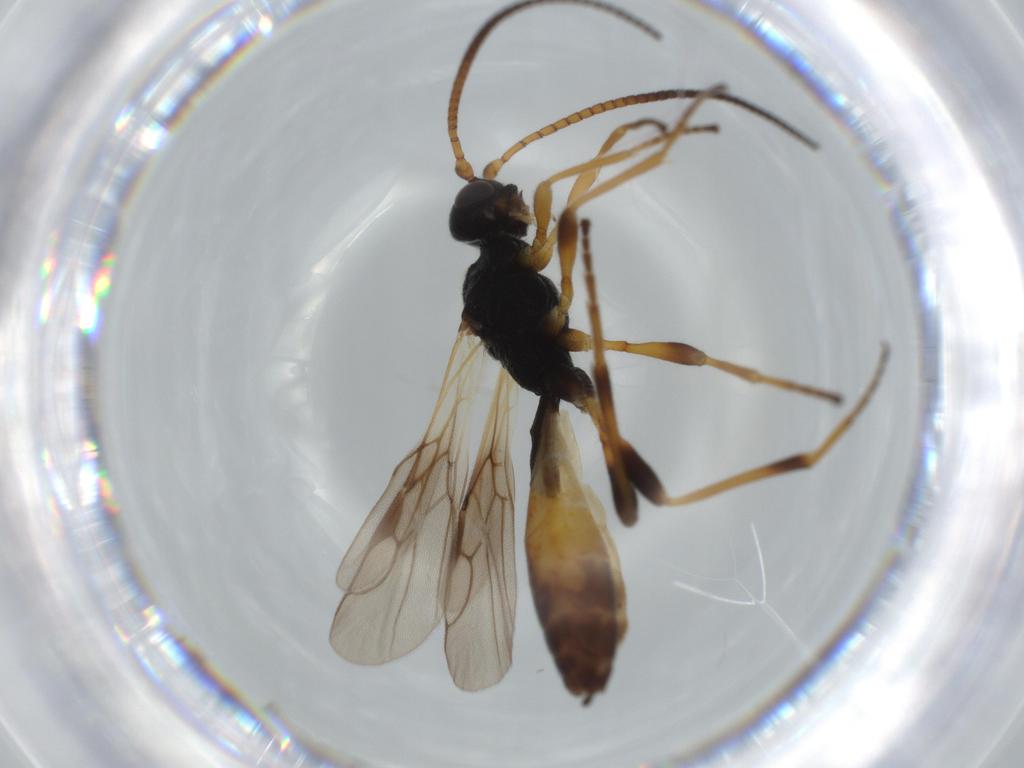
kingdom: Animalia
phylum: Arthropoda
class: Insecta
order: Hymenoptera
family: Braconidae
